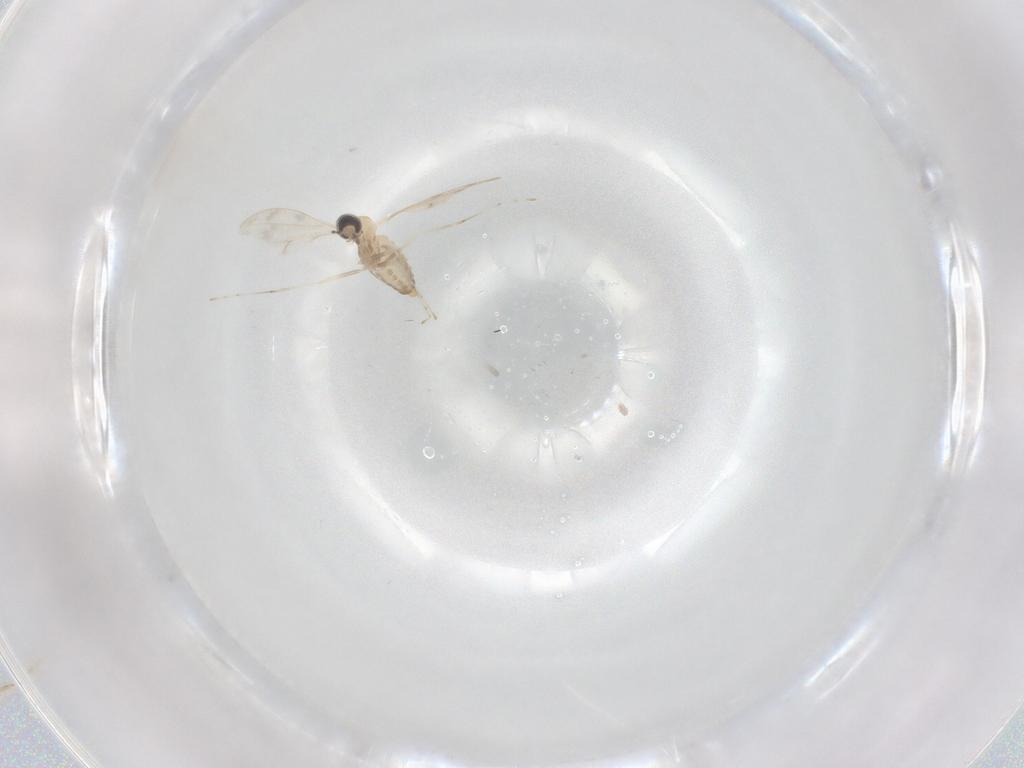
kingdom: Animalia
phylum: Arthropoda
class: Insecta
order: Diptera
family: Cecidomyiidae
